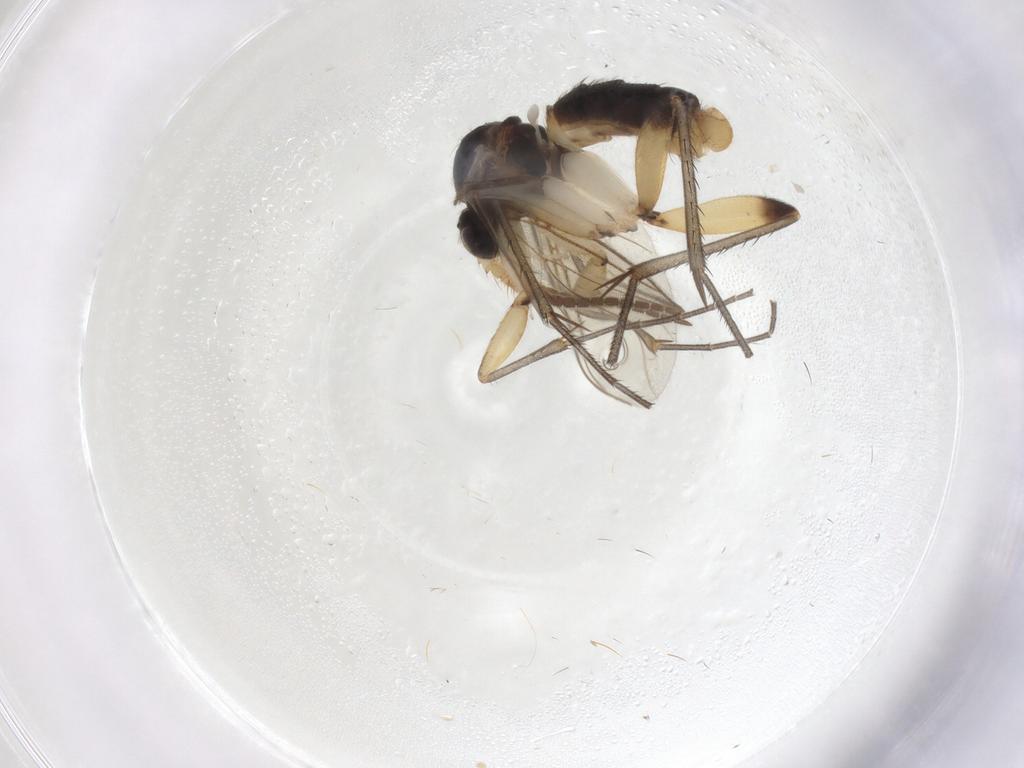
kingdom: Animalia
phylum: Arthropoda
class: Insecta
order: Diptera
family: Mycetophilidae
